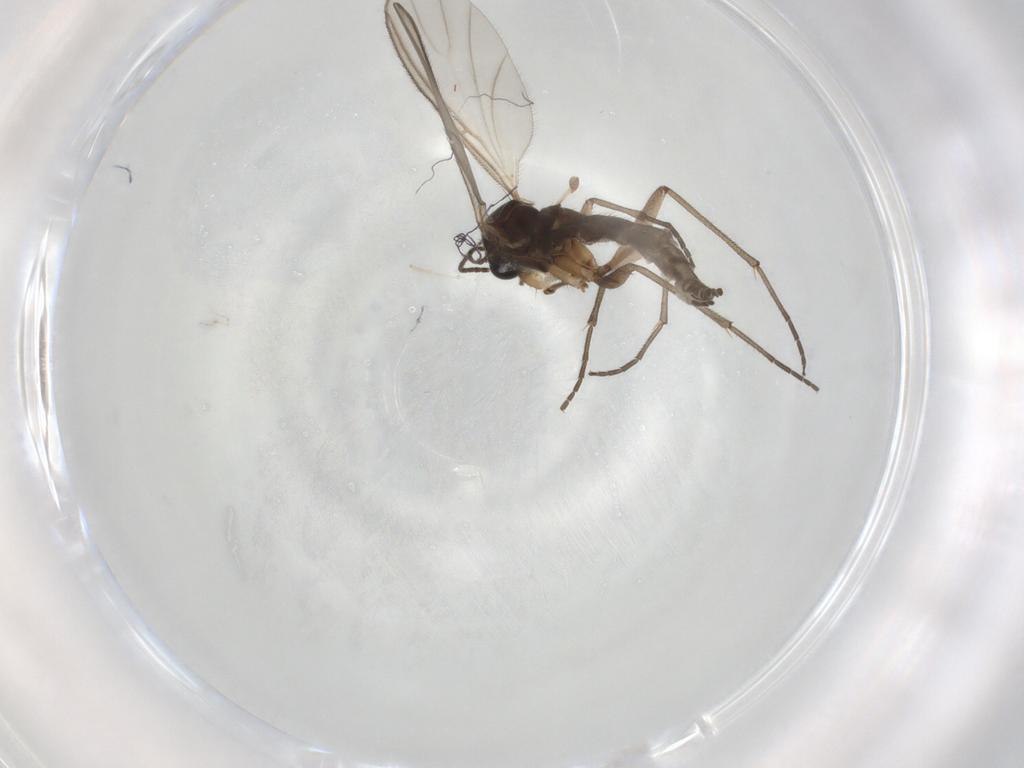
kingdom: Animalia
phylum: Arthropoda
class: Insecta
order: Diptera
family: Sciaridae
